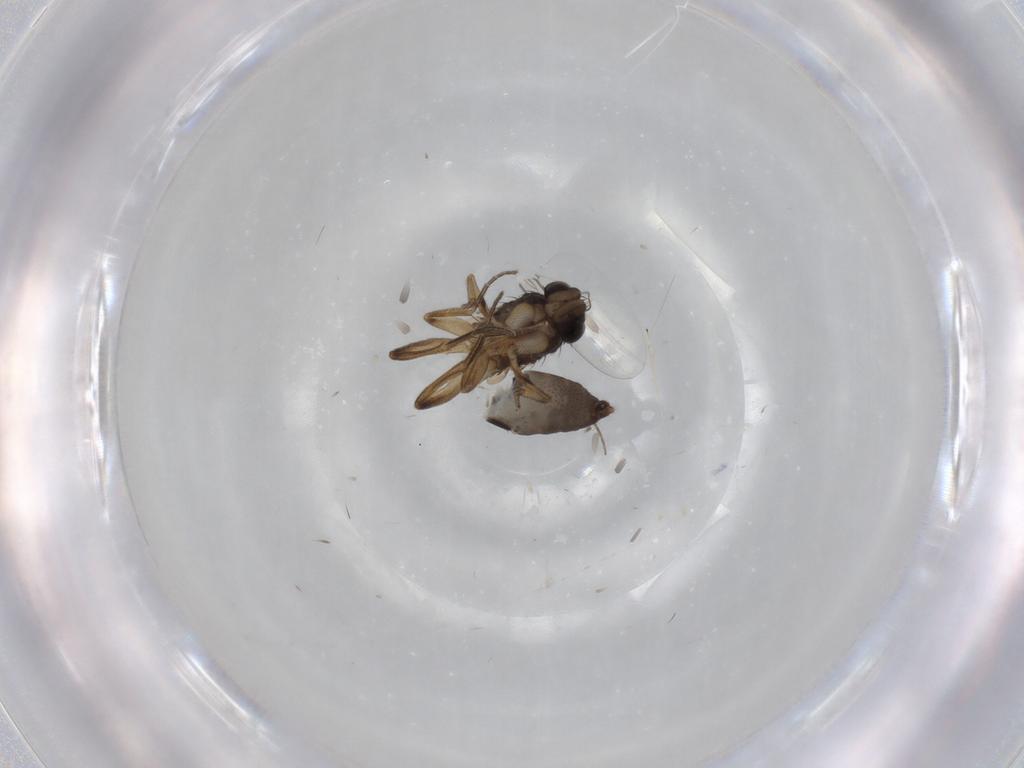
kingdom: Animalia
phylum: Arthropoda
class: Insecta
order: Diptera
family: Phoridae
